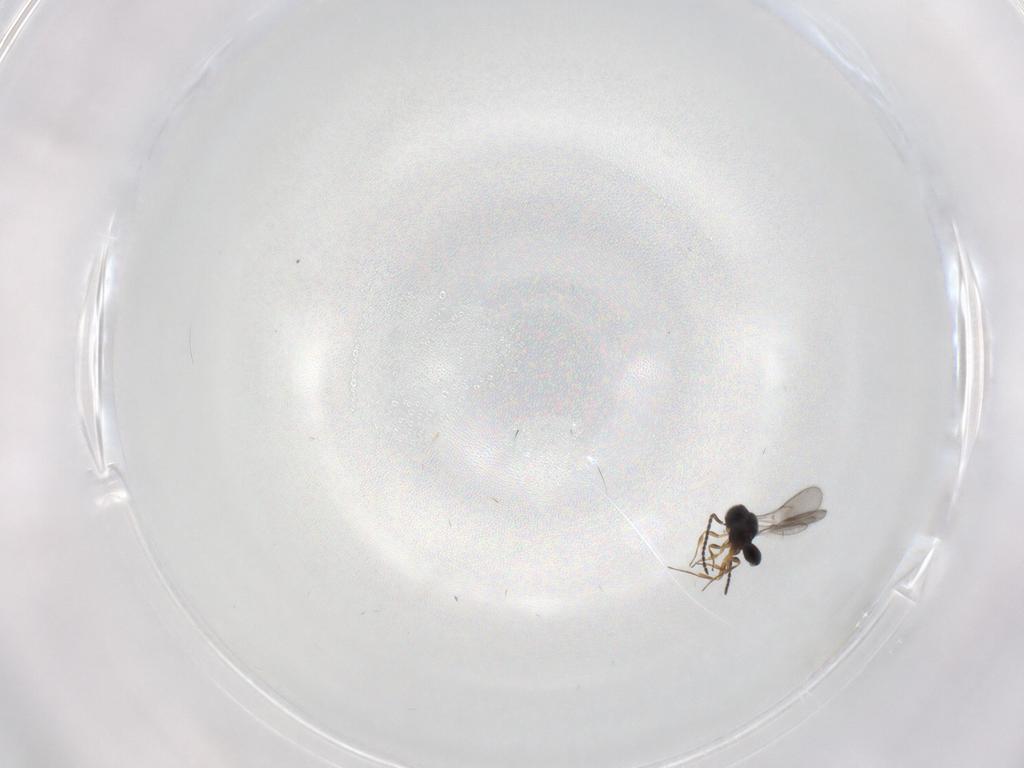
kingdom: Animalia
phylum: Arthropoda
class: Insecta
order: Hymenoptera
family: Scelionidae
